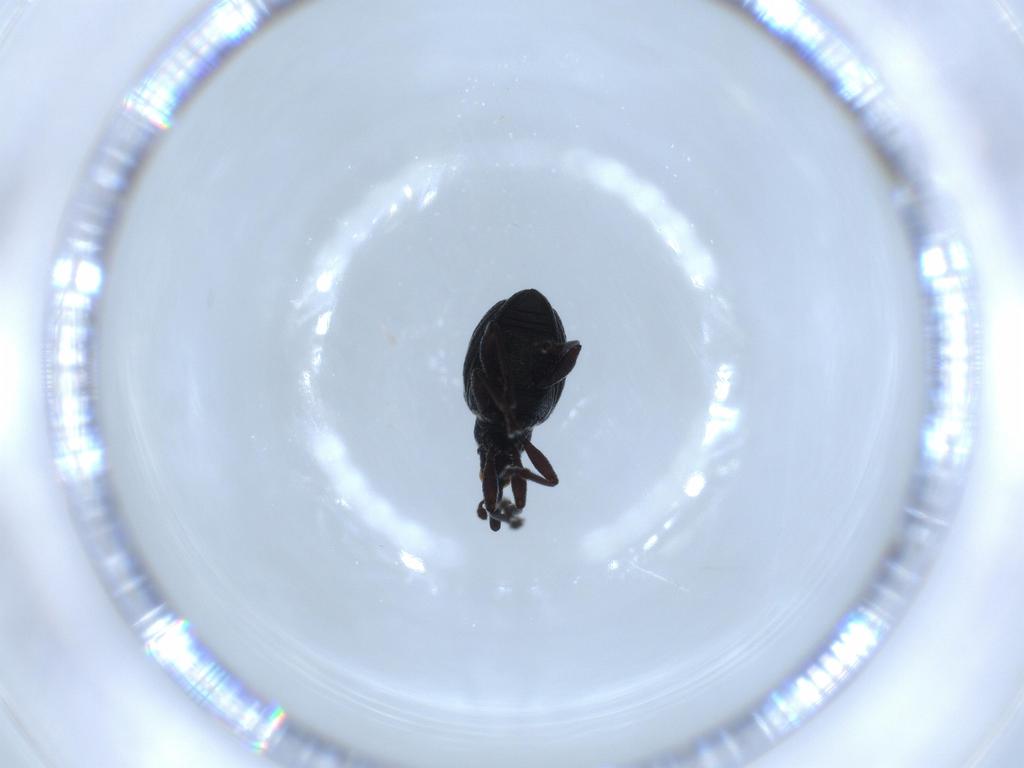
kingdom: Animalia
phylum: Arthropoda
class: Insecta
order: Coleoptera
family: Brentidae
